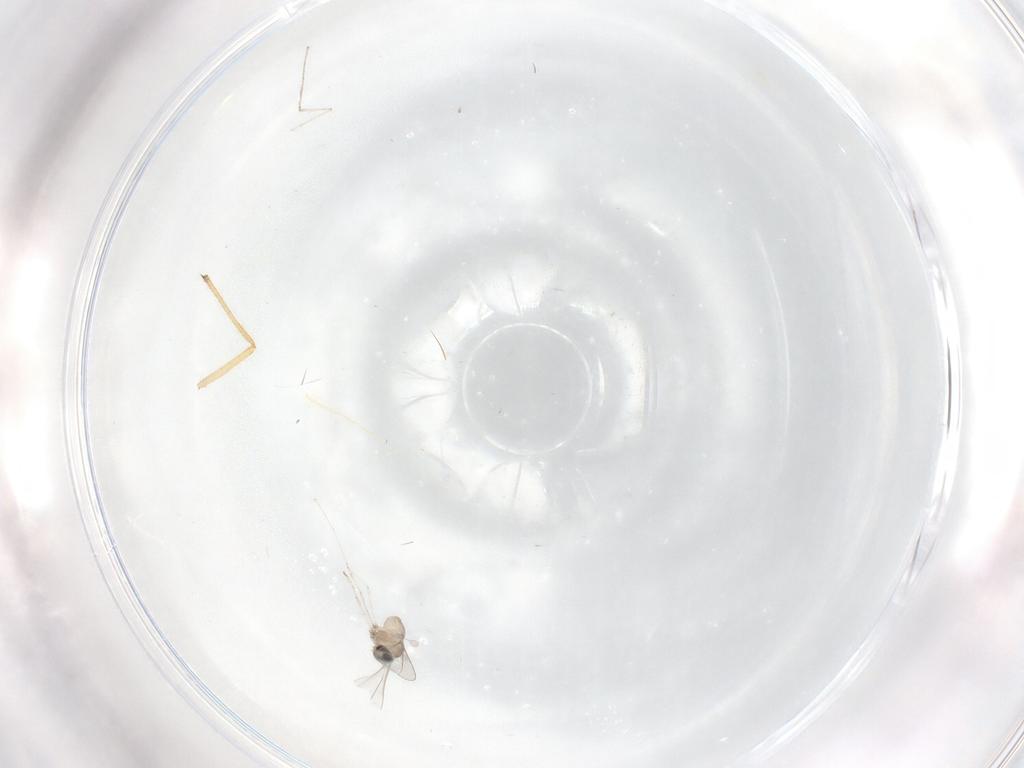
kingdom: Animalia
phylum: Arthropoda
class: Insecta
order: Diptera
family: Cecidomyiidae
